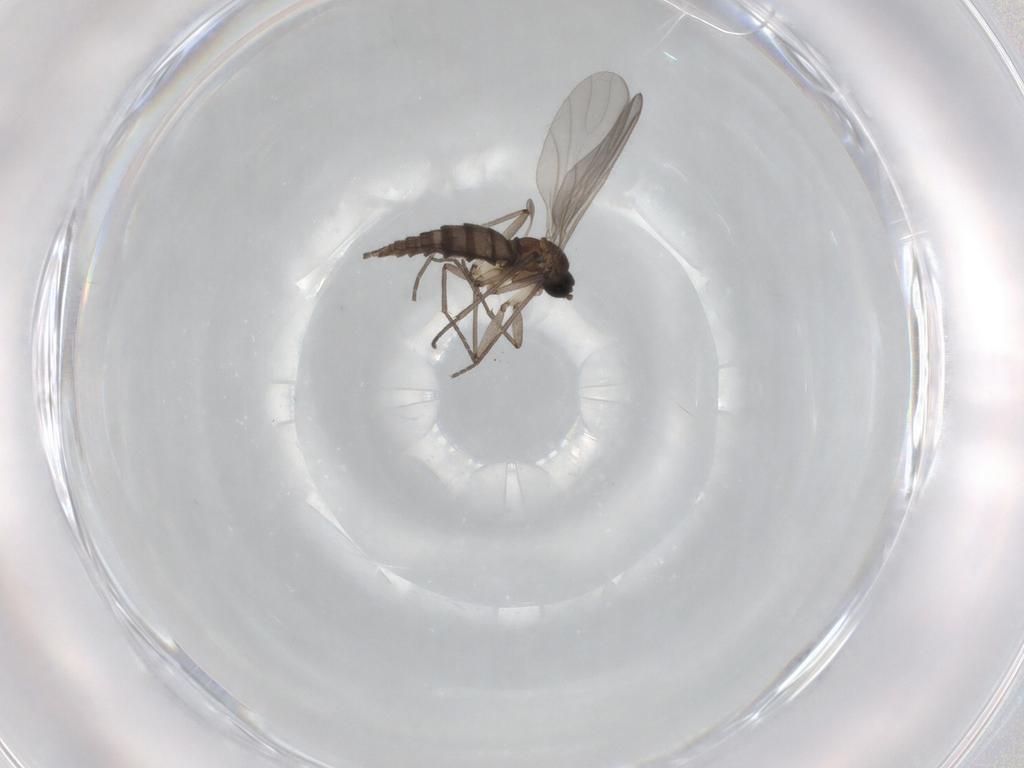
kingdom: Animalia
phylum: Arthropoda
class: Insecta
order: Diptera
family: Sciaridae
